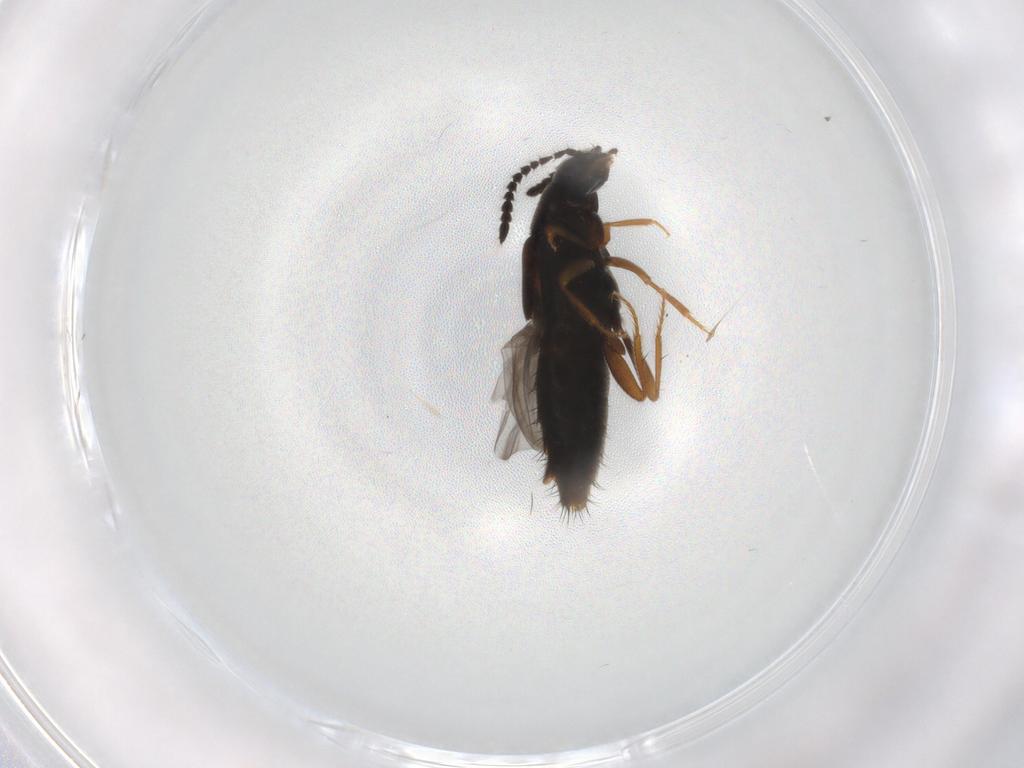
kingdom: Animalia
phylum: Arthropoda
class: Insecta
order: Coleoptera
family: Staphylinidae
